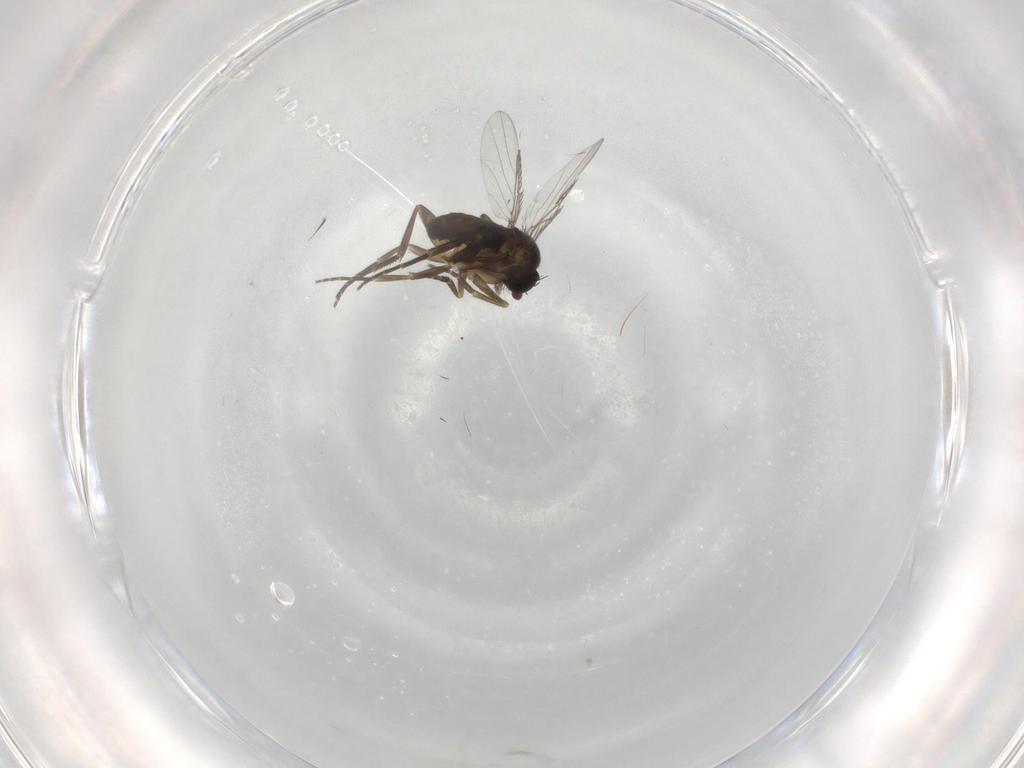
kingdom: Animalia
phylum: Arthropoda
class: Insecta
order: Diptera
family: Phoridae
